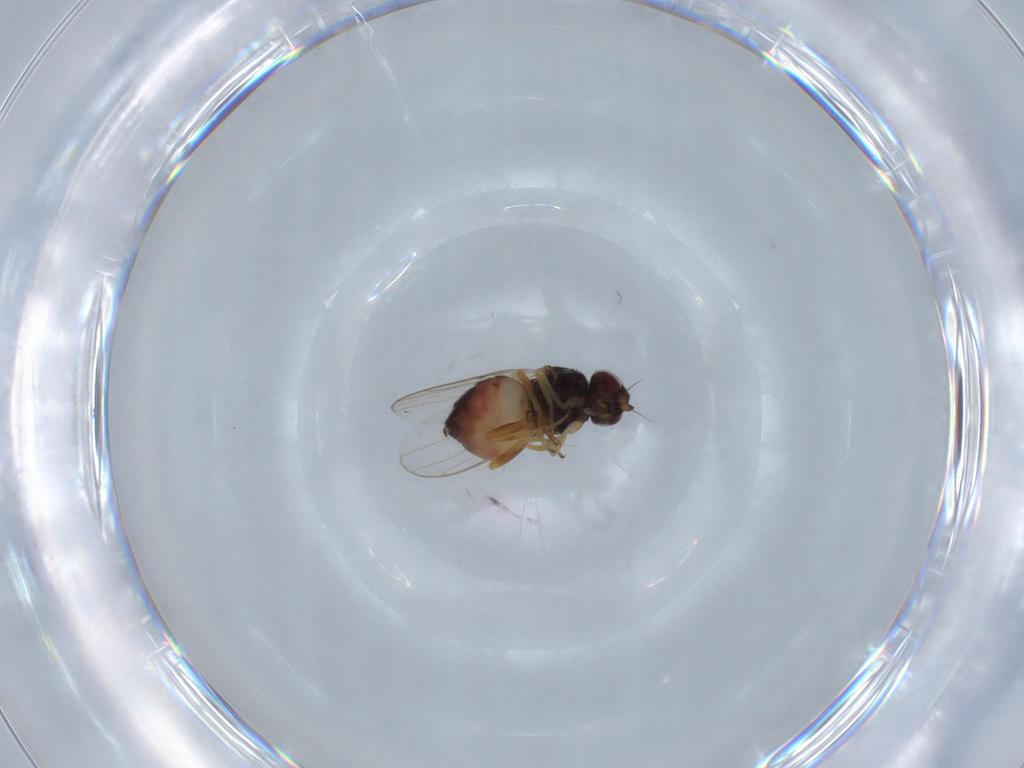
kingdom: Animalia
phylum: Arthropoda
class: Insecta
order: Diptera
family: Chloropidae
